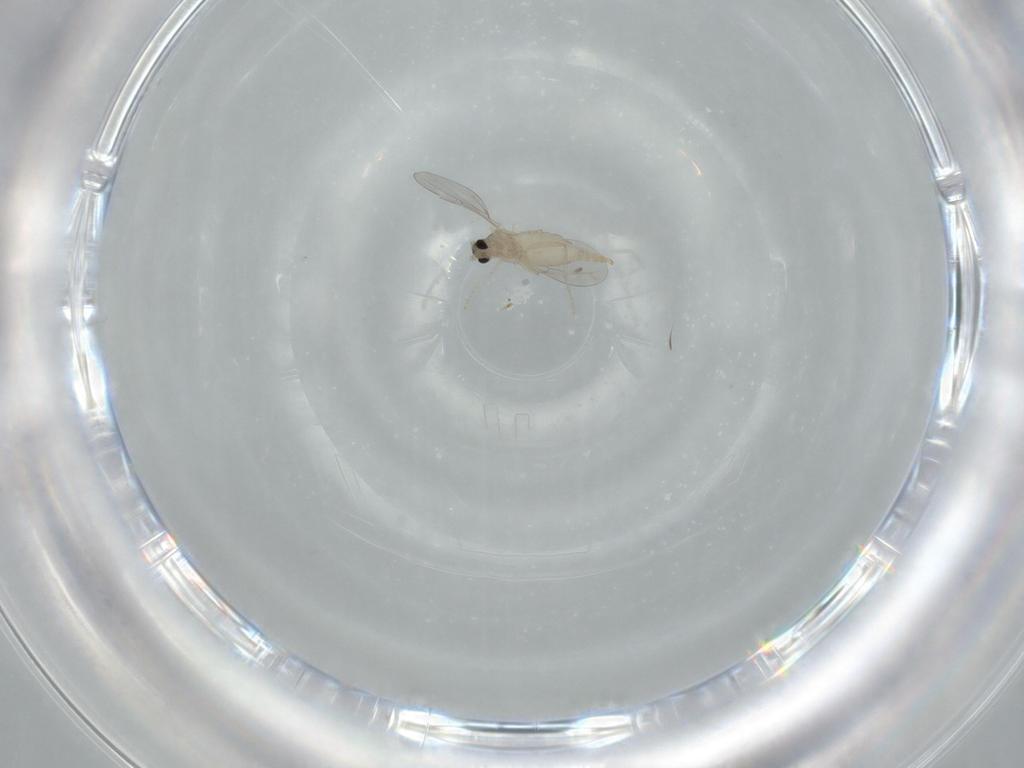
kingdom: Animalia
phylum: Arthropoda
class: Insecta
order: Diptera
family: Cecidomyiidae
